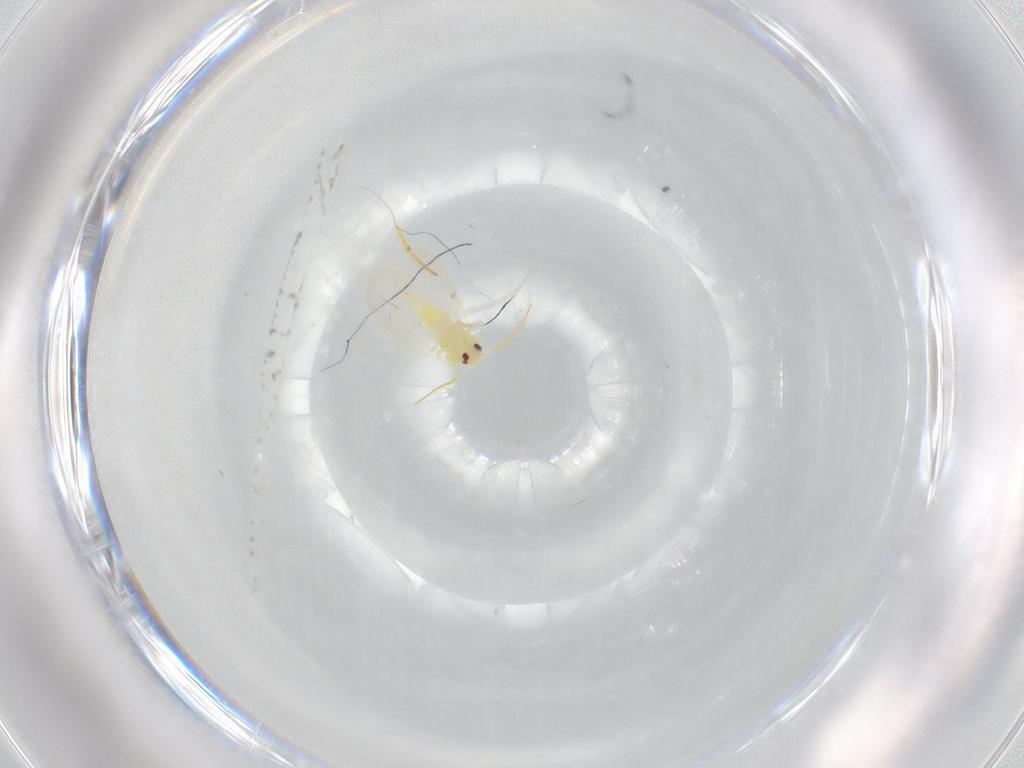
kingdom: Animalia
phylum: Arthropoda
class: Insecta
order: Hemiptera
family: Aleyrodidae
